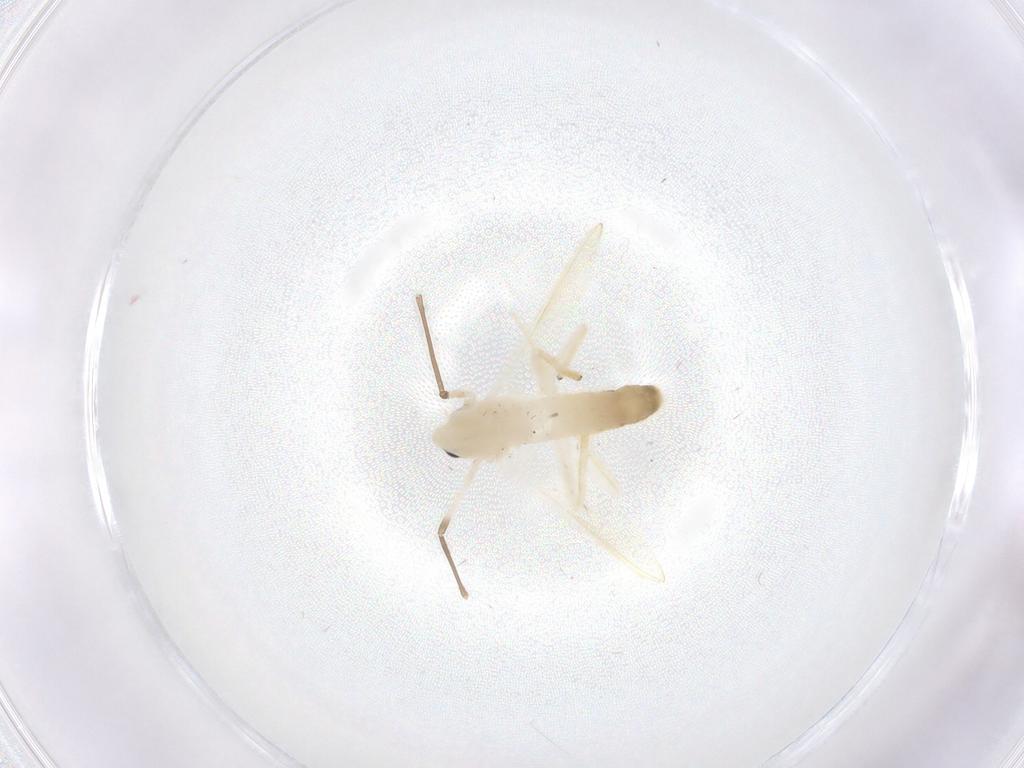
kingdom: Animalia
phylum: Arthropoda
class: Insecta
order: Diptera
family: Chironomidae
